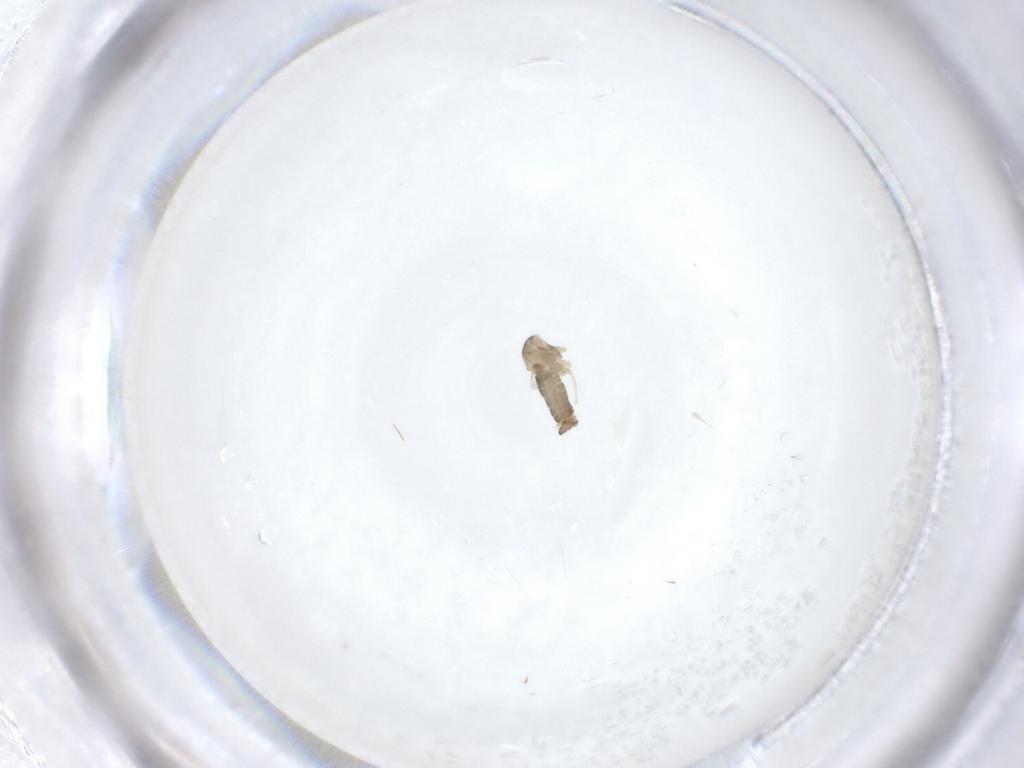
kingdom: Animalia
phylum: Arthropoda
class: Insecta
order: Diptera
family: Cecidomyiidae
